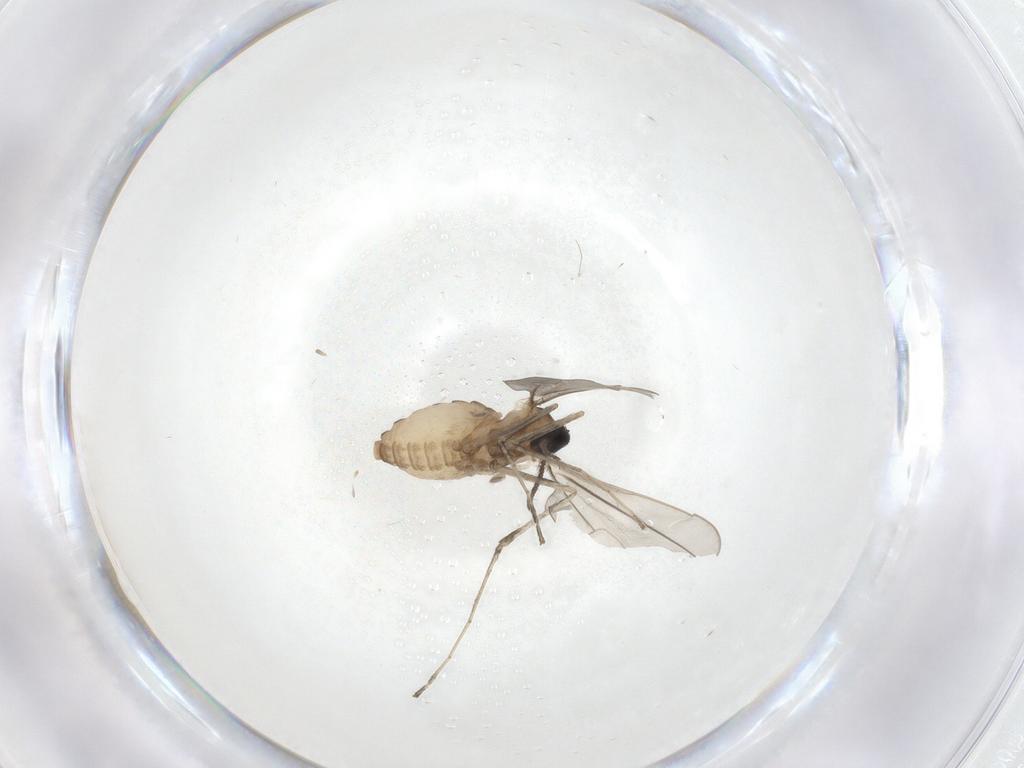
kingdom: Animalia
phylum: Arthropoda
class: Insecta
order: Diptera
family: Cecidomyiidae
